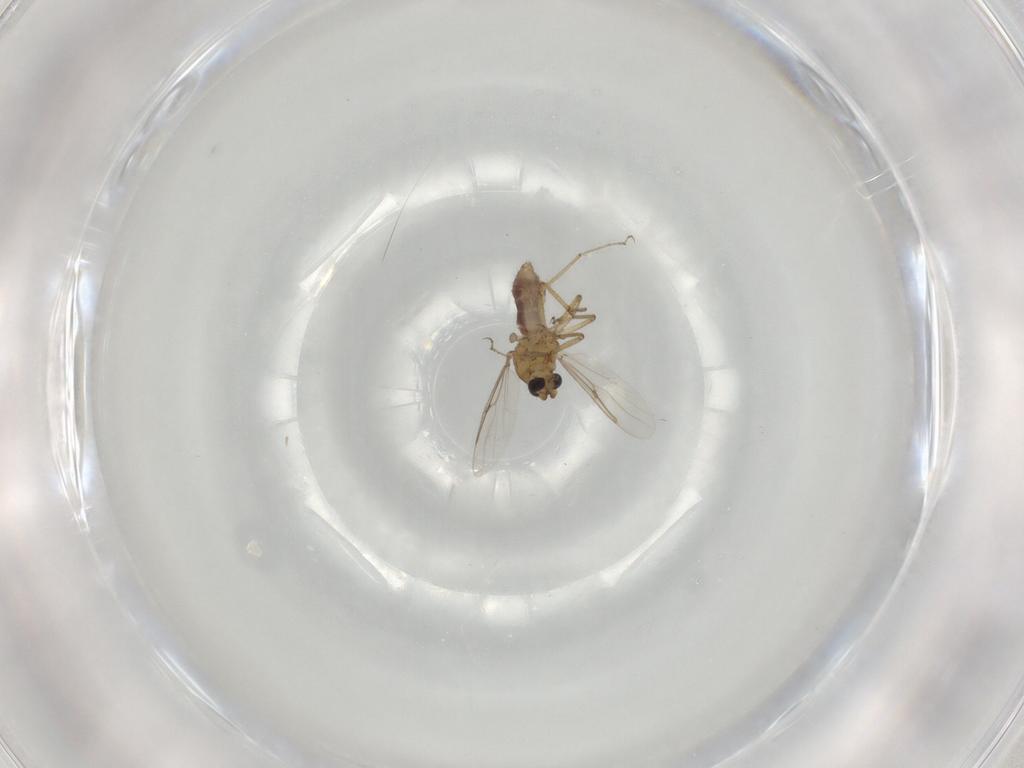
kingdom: Animalia
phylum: Arthropoda
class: Insecta
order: Diptera
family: Ceratopogonidae
